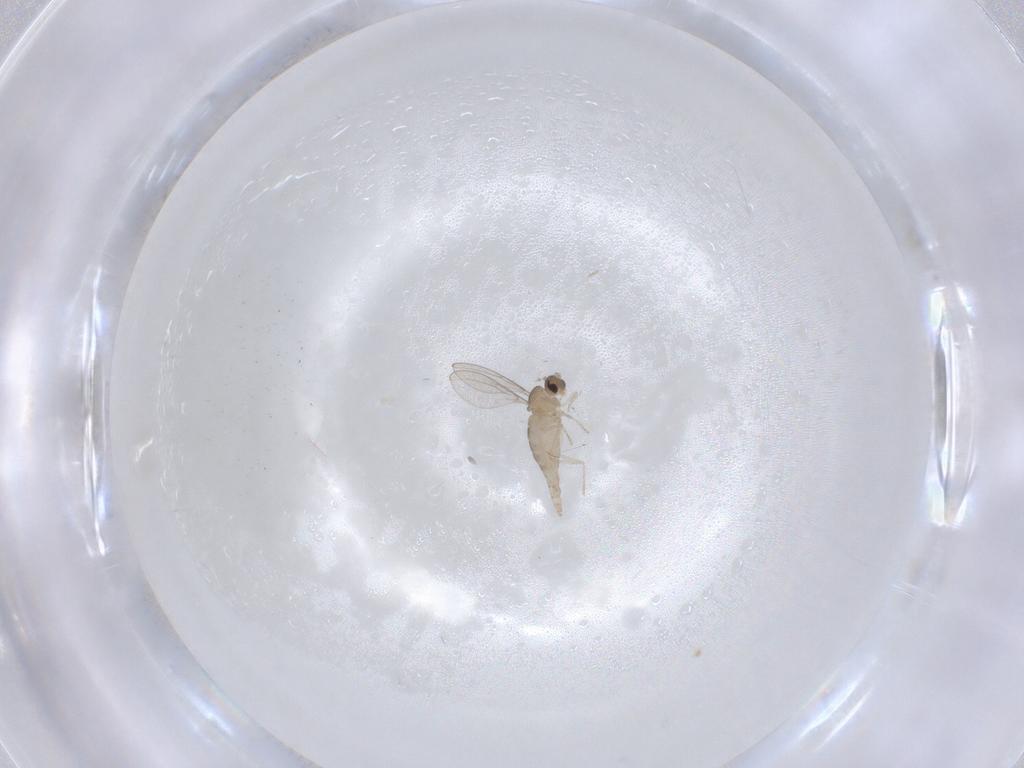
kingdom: Animalia
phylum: Arthropoda
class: Insecta
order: Diptera
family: Cecidomyiidae
